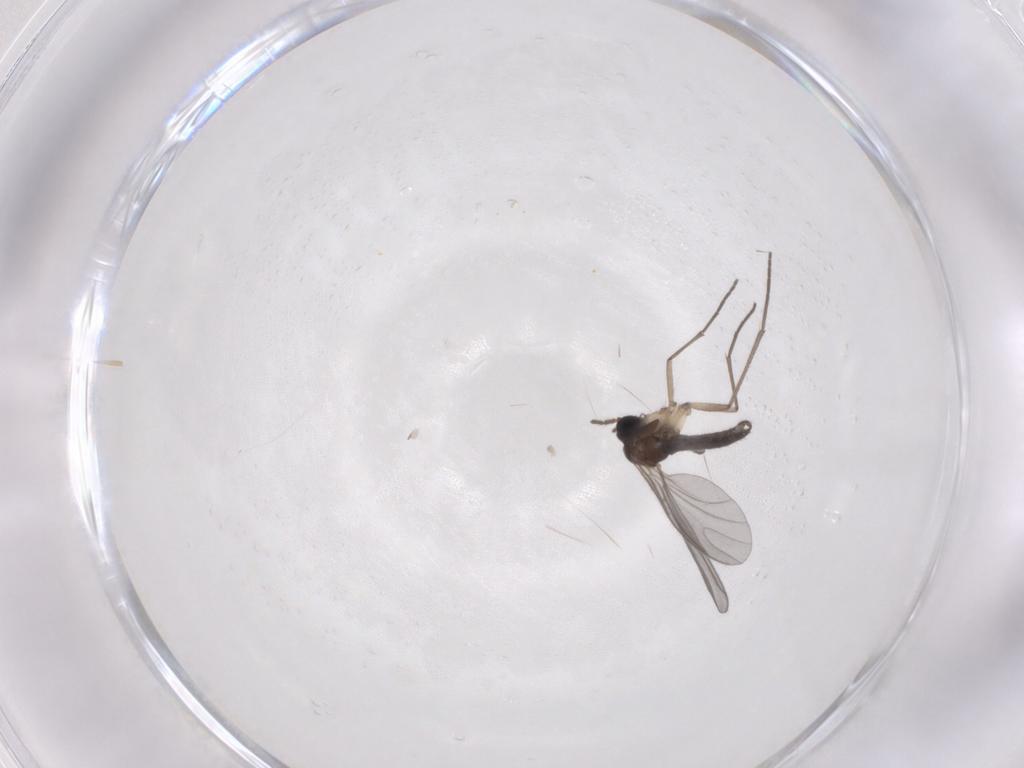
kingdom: Animalia
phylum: Arthropoda
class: Insecta
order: Diptera
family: Sciaridae
